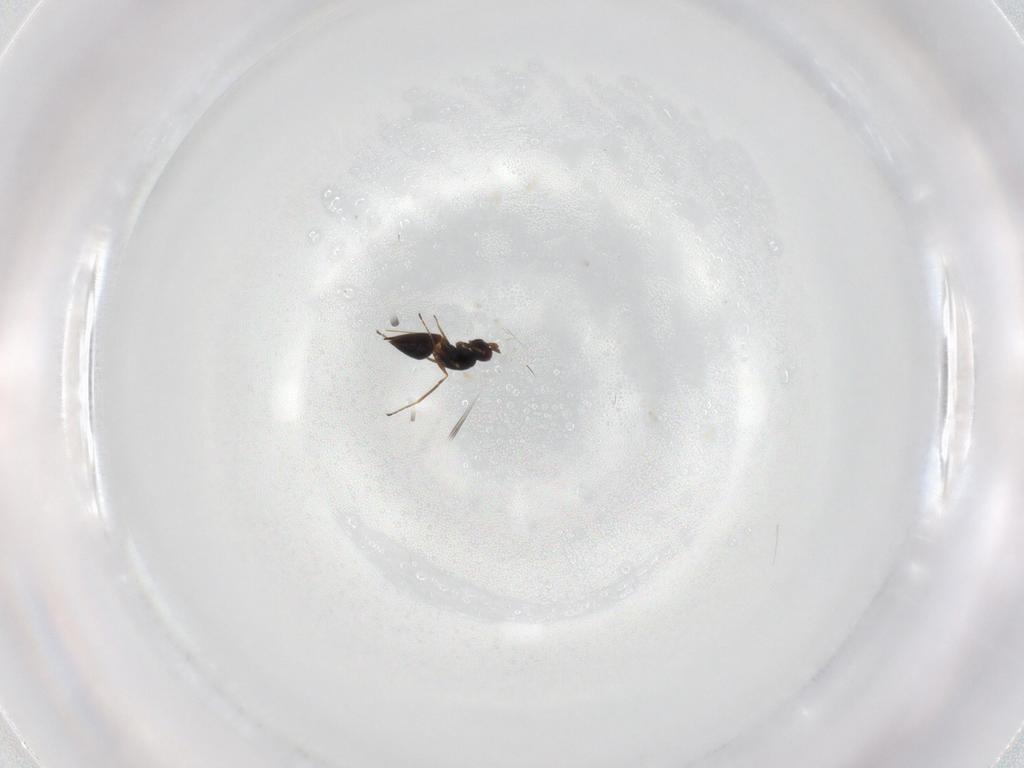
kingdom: Animalia
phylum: Arthropoda
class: Insecta
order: Hymenoptera
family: Mymaridae
